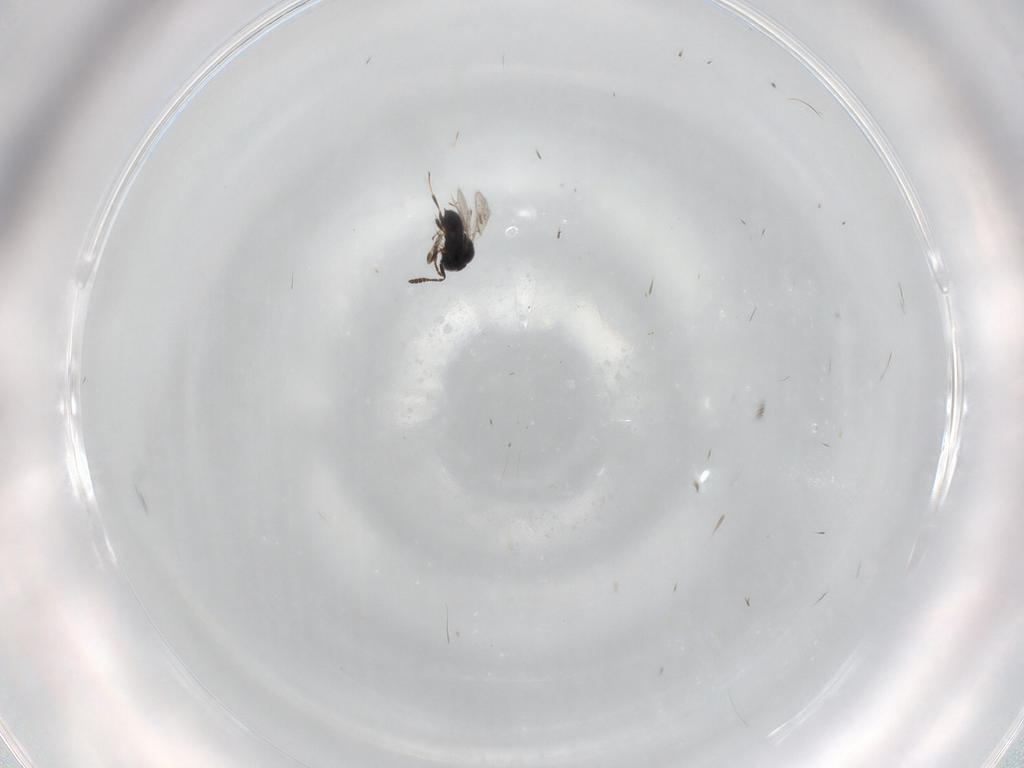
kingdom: Animalia
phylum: Arthropoda
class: Insecta
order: Hymenoptera
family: Scelionidae
